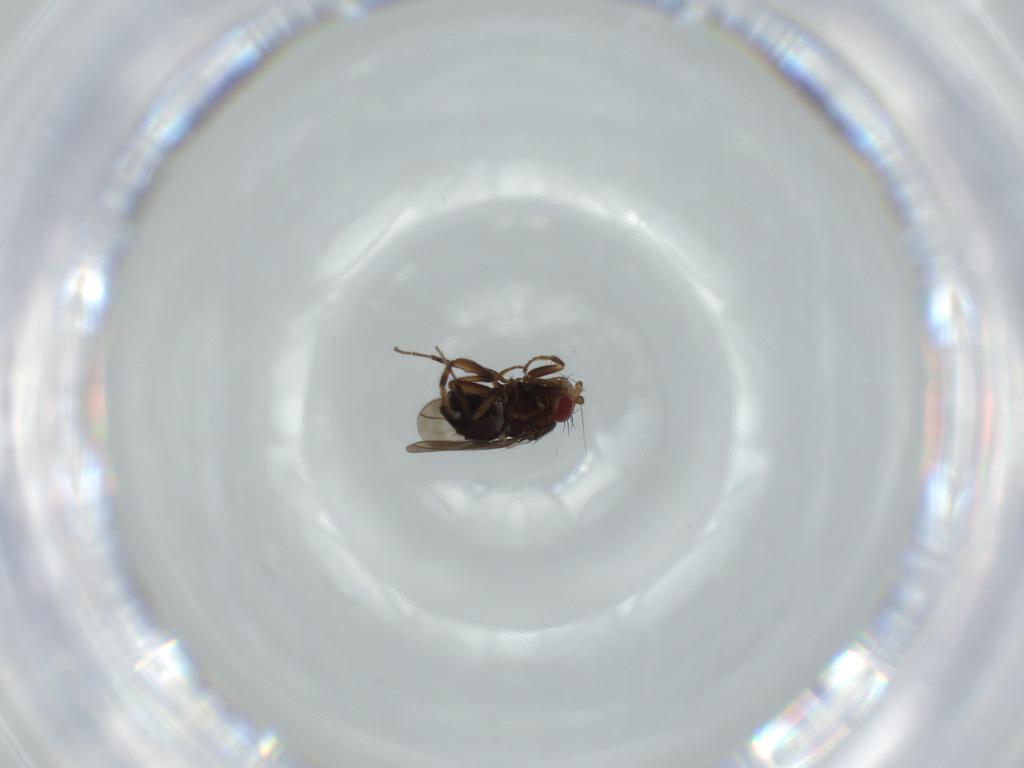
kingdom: Animalia
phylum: Arthropoda
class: Insecta
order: Diptera
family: Sphaeroceridae
